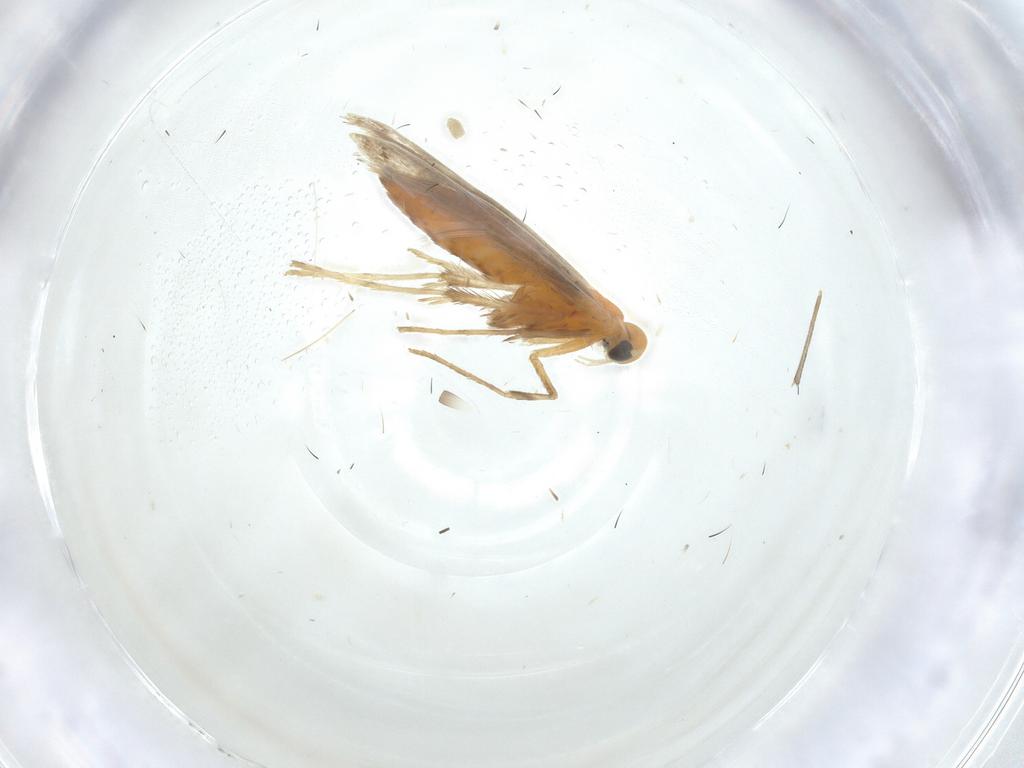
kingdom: Animalia
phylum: Arthropoda
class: Insecta
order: Lepidoptera
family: Gracillariidae
